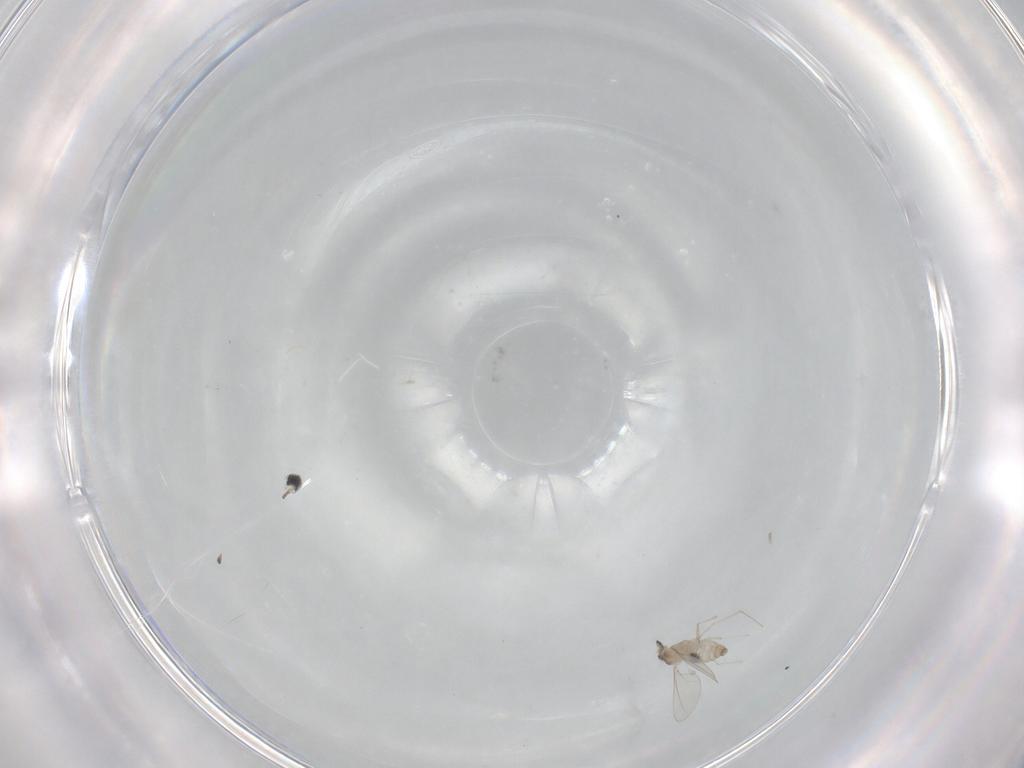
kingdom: Animalia
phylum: Arthropoda
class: Insecta
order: Diptera
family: Cecidomyiidae
